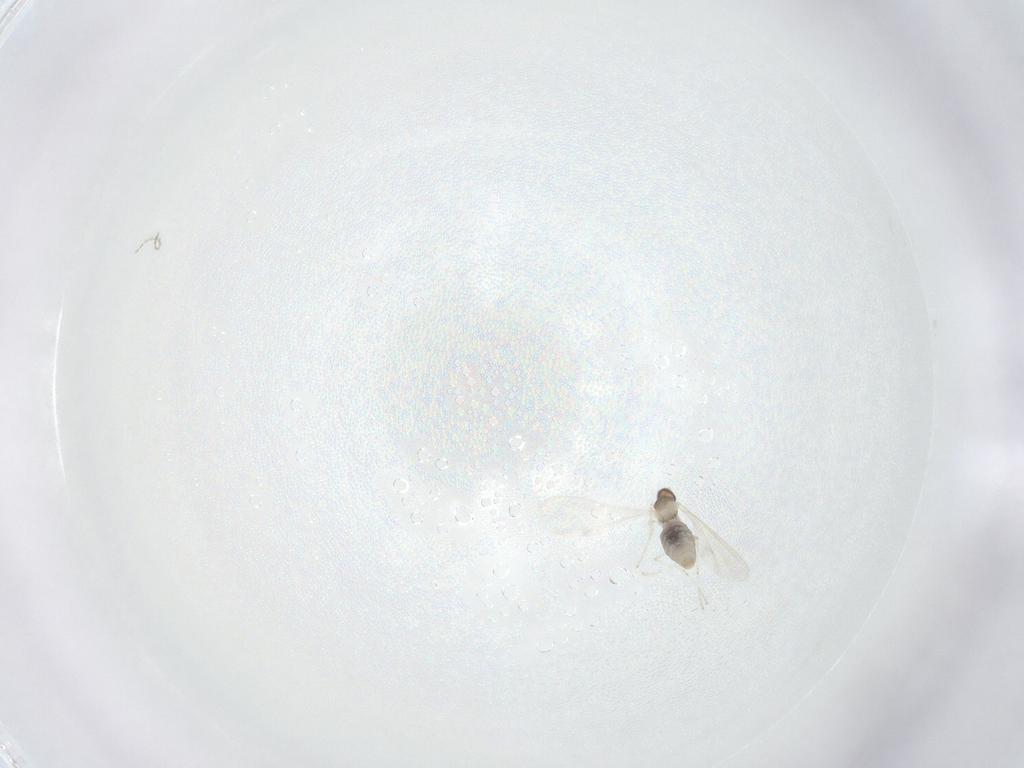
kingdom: Animalia
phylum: Arthropoda
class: Insecta
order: Diptera
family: Cecidomyiidae
